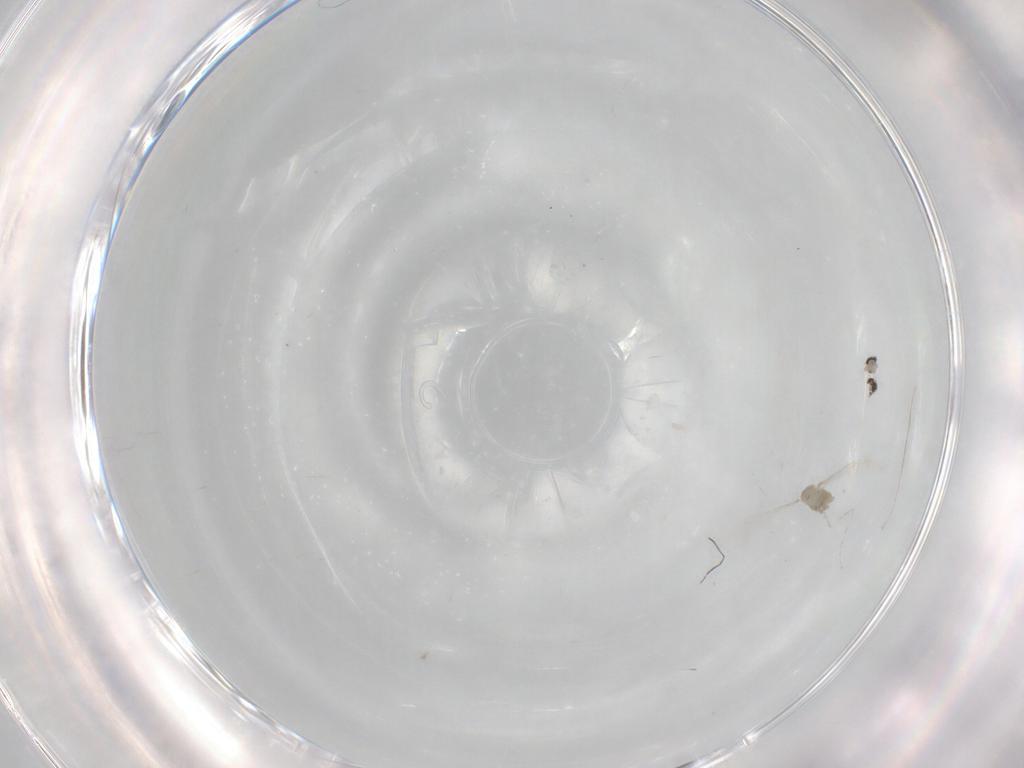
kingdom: Animalia
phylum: Arthropoda
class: Insecta
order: Diptera
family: Cecidomyiidae
